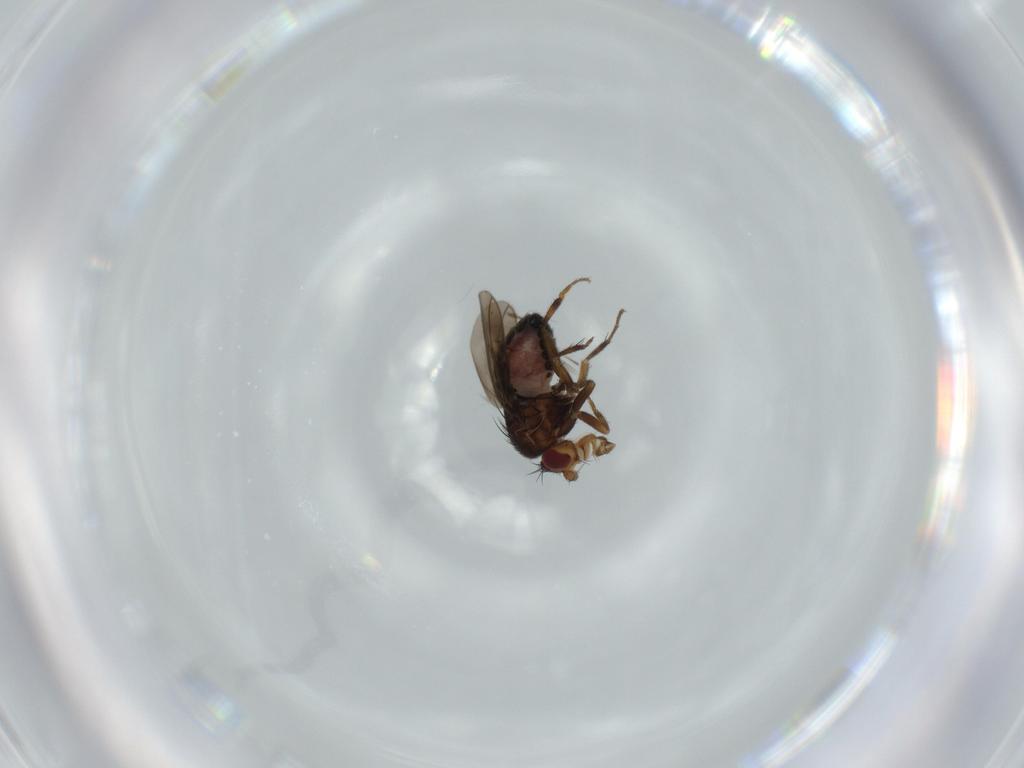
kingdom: Animalia
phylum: Arthropoda
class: Insecta
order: Diptera
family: Sphaeroceridae
